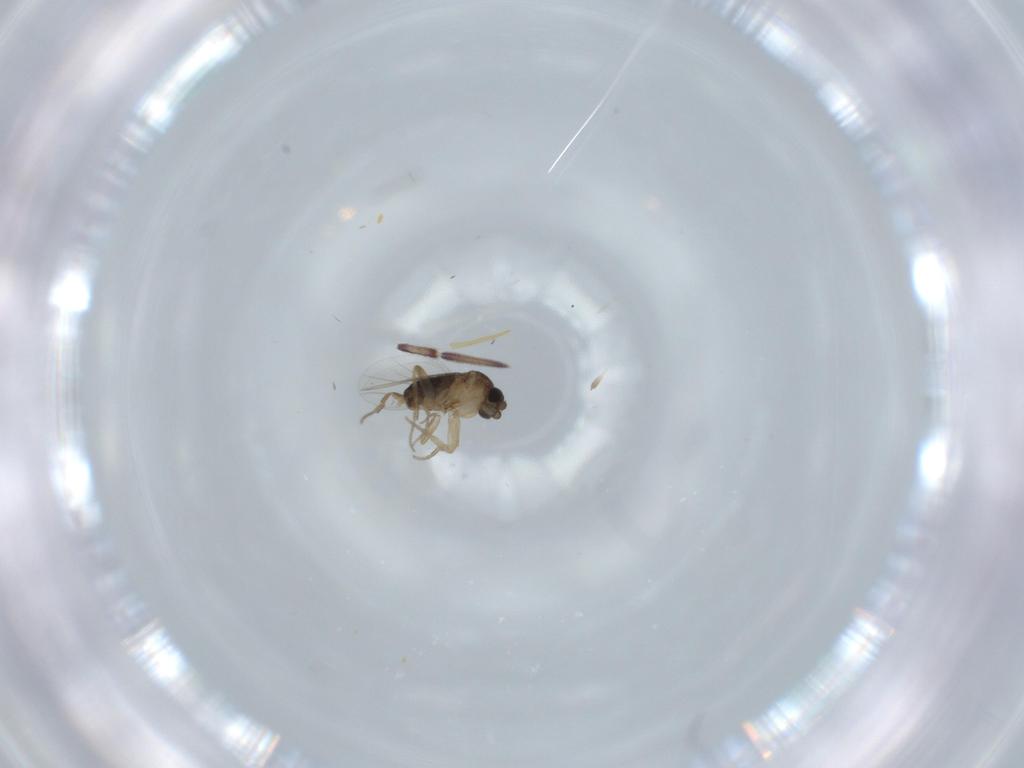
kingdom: Animalia
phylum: Arthropoda
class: Insecta
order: Diptera
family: Phoridae
